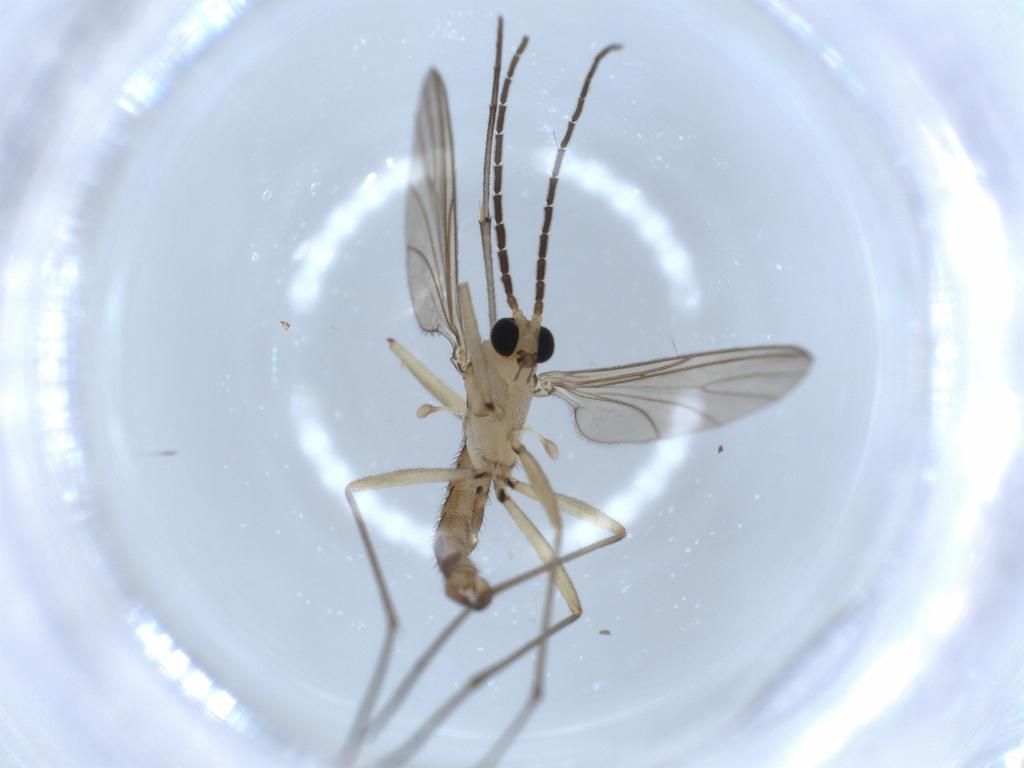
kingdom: Animalia
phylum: Arthropoda
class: Insecta
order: Diptera
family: Sciaridae
